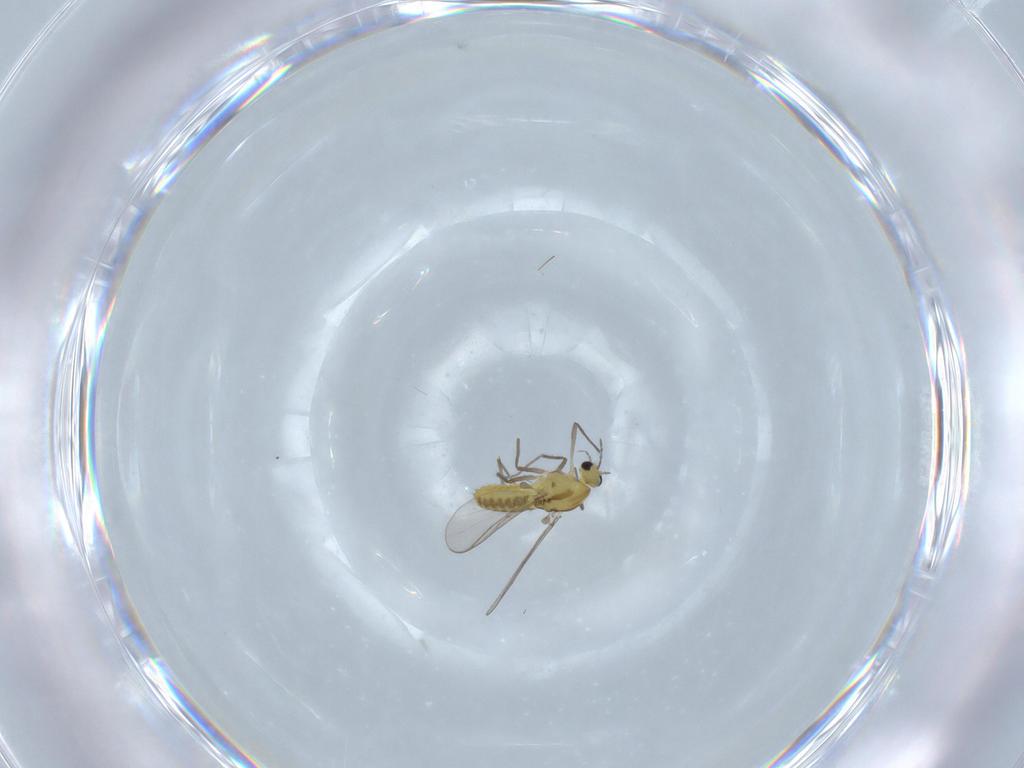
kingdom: Animalia
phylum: Arthropoda
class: Insecta
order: Diptera
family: Chironomidae
